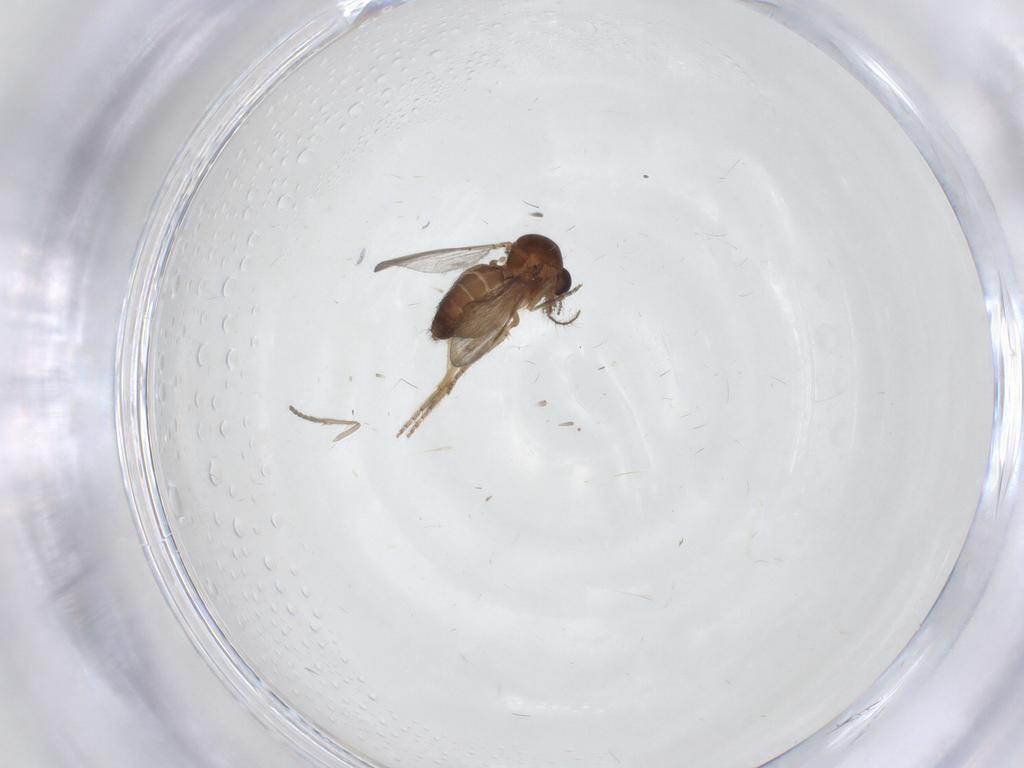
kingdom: Animalia
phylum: Arthropoda
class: Insecta
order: Diptera
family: Ceratopogonidae
